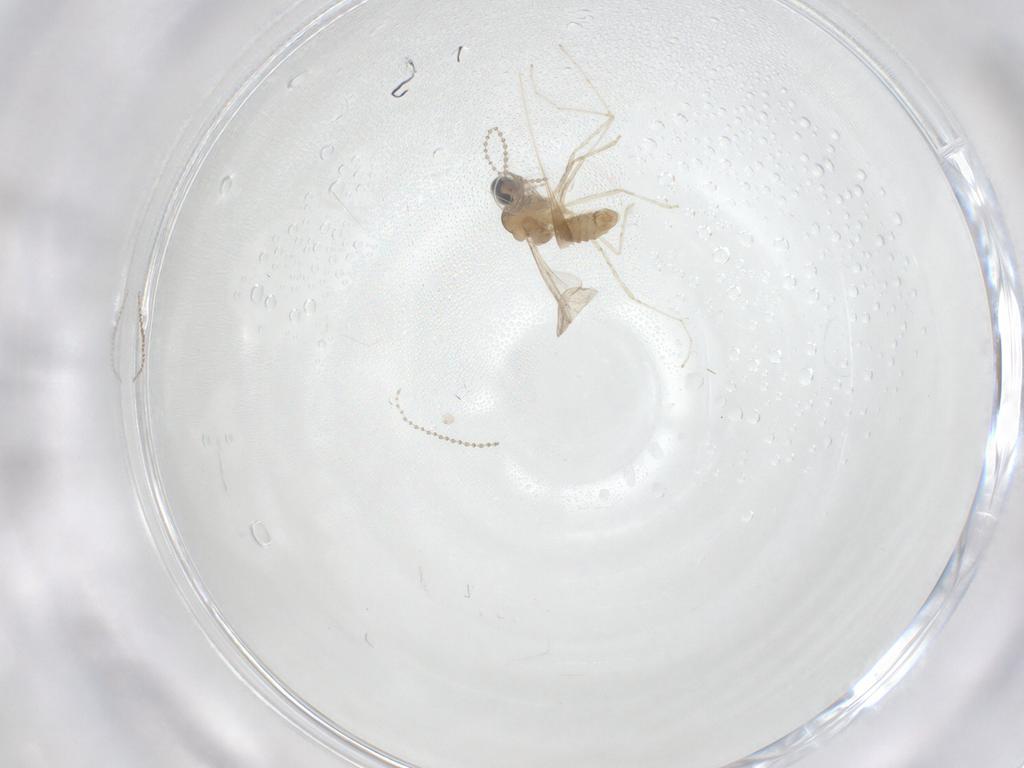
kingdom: Animalia
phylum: Arthropoda
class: Insecta
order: Diptera
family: Cecidomyiidae
